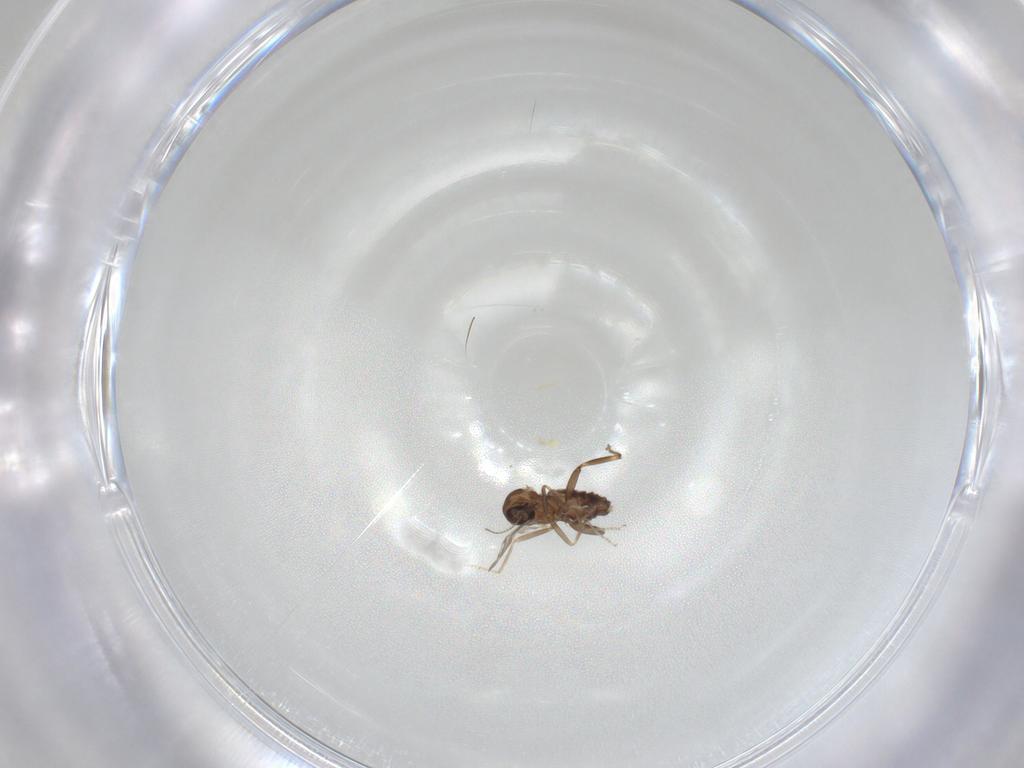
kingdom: Animalia
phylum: Arthropoda
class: Insecta
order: Diptera
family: Ceratopogonidae
